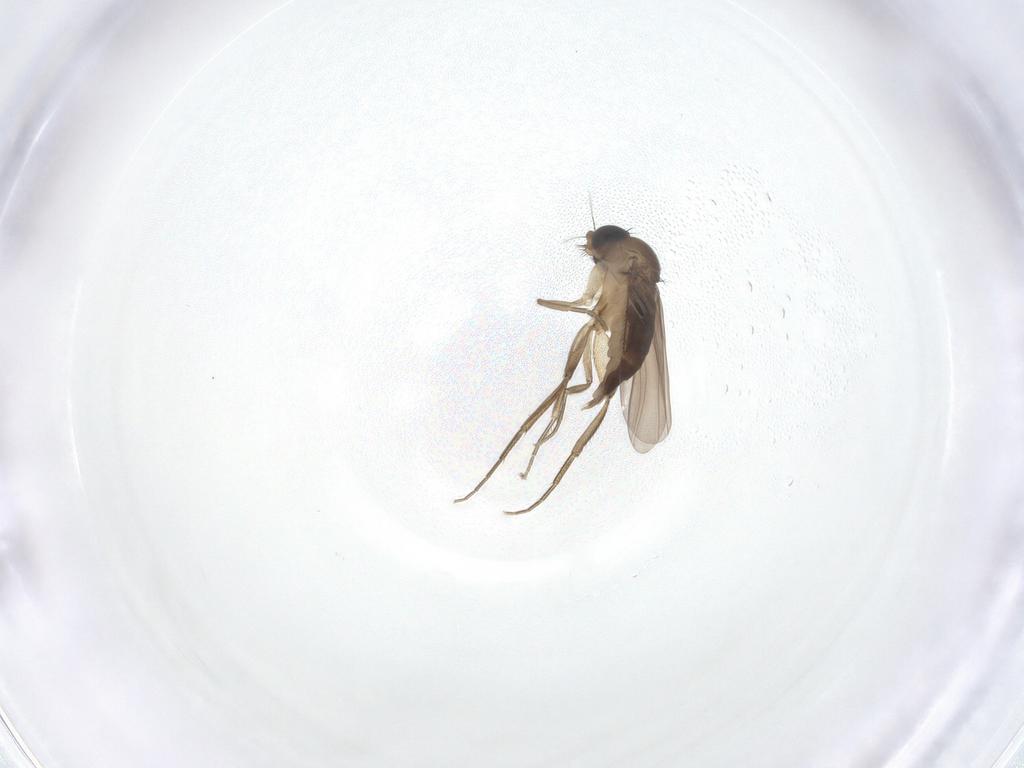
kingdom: Animalia
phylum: Arthropoda
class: Insecta
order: Diptera
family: Phoridae
